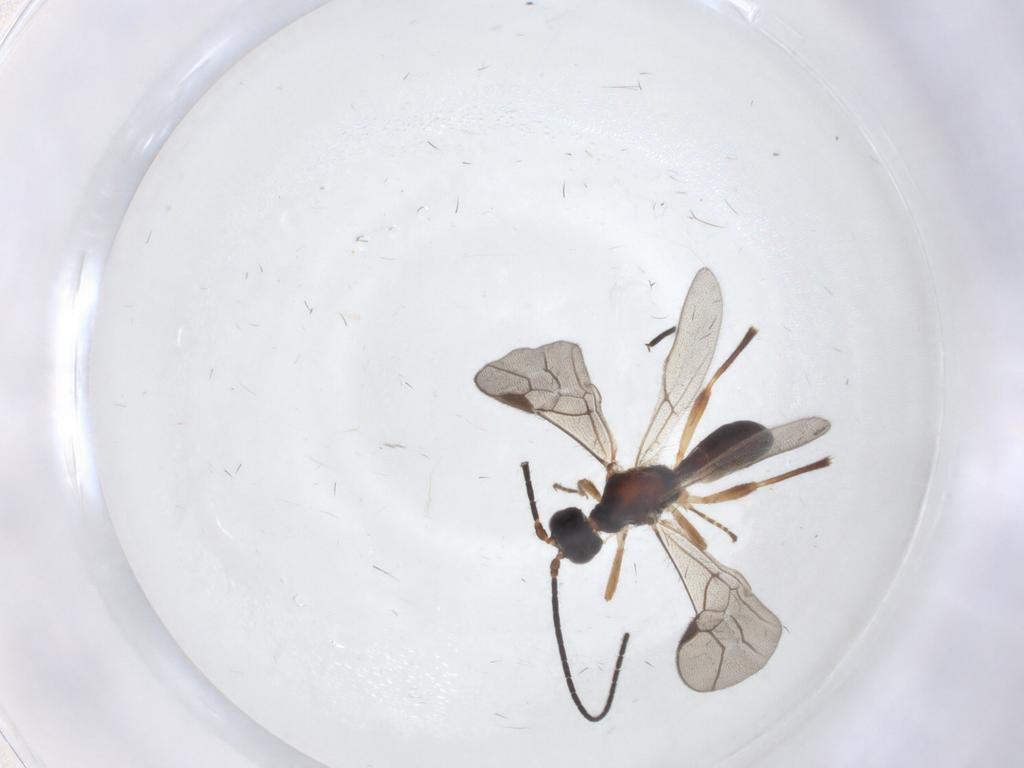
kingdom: Animalia
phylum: Arthropoda
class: Insecta
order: Hymenoptera
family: Braconidae
